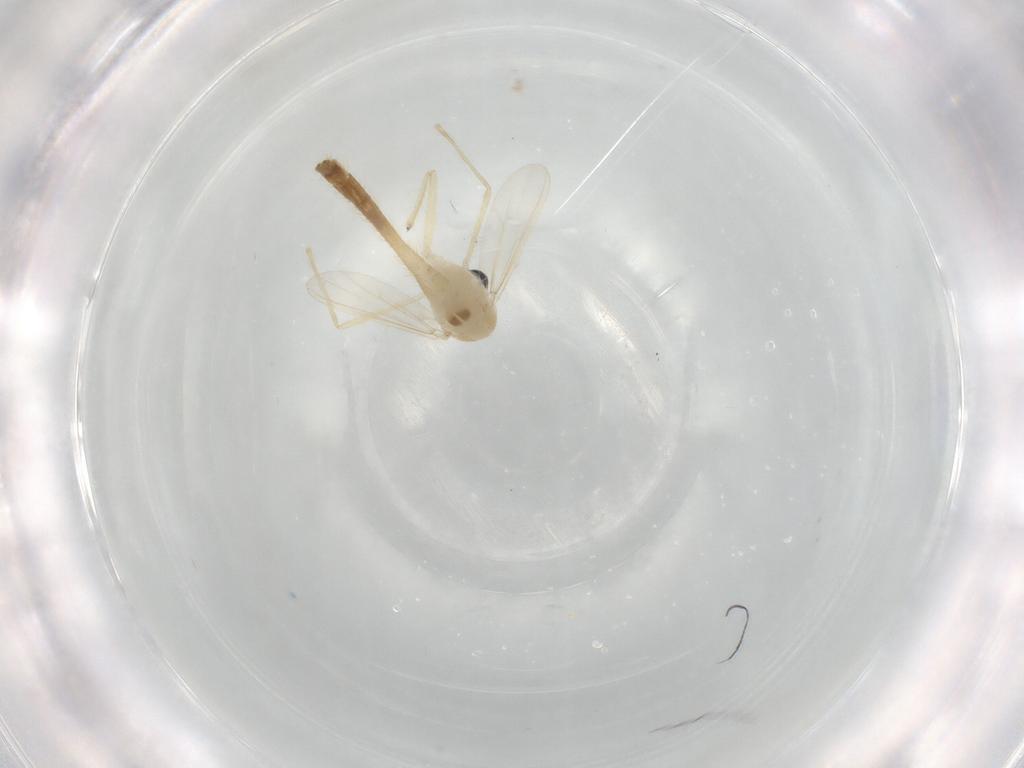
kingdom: Animalia
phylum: Arthropoda
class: Insecta
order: Diptera
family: Chironomidae
